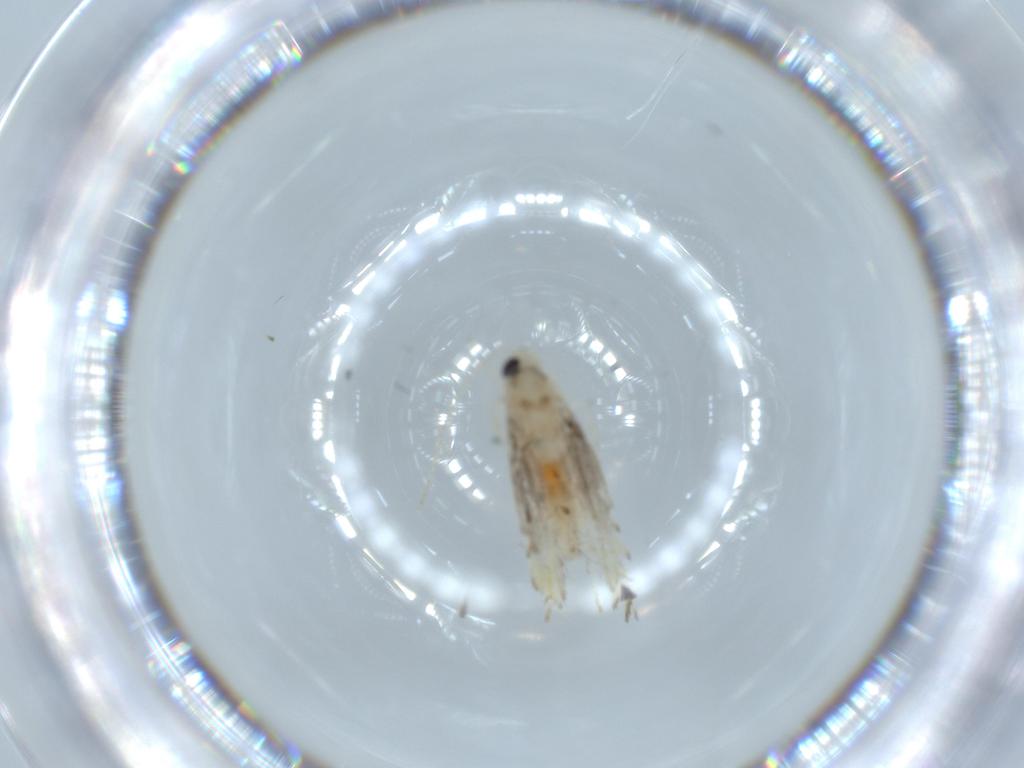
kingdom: Animalia
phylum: Arthropoda
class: Insecta
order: Lepidoptera
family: Gracillariidae
